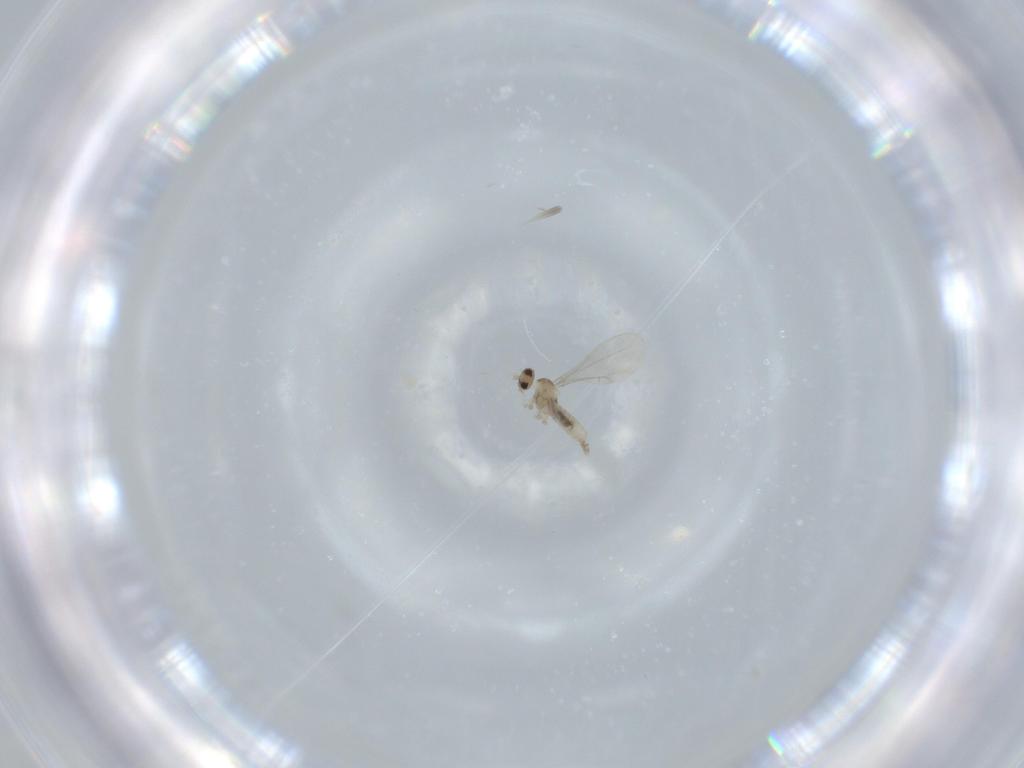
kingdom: Animalia
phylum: Arthropoda
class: Insecta
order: Diptera
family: Cecidomyiidae
